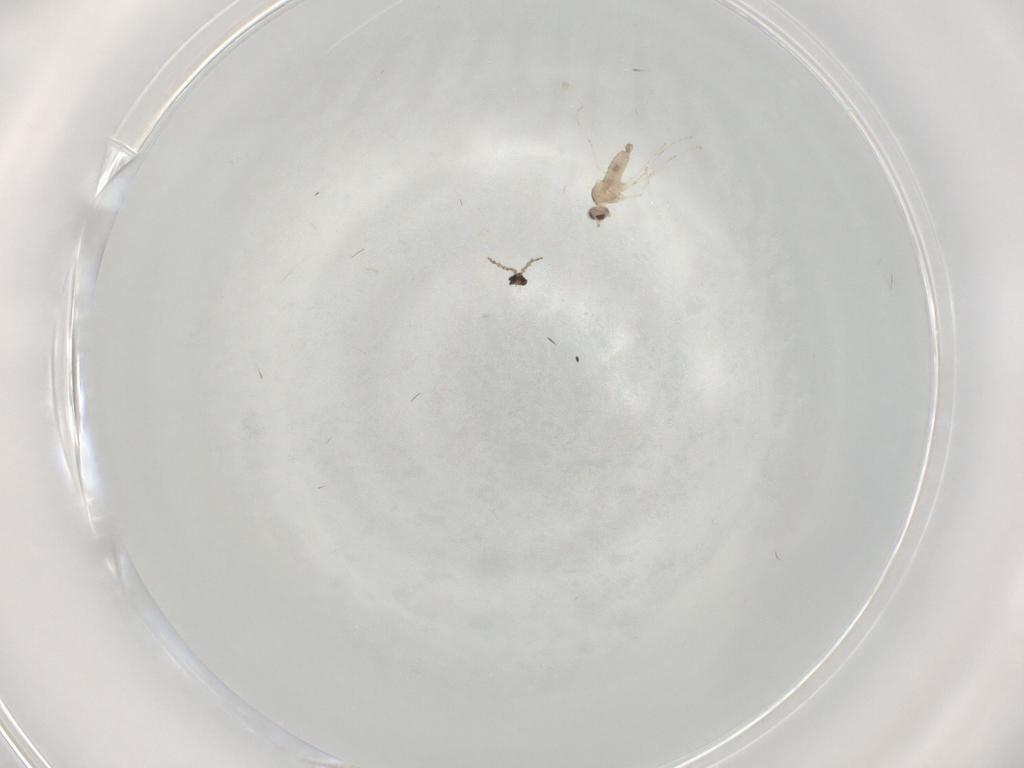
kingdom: Animalia
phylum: Arthropoda
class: Insecta
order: Diptera
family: Cecidomyiidae
